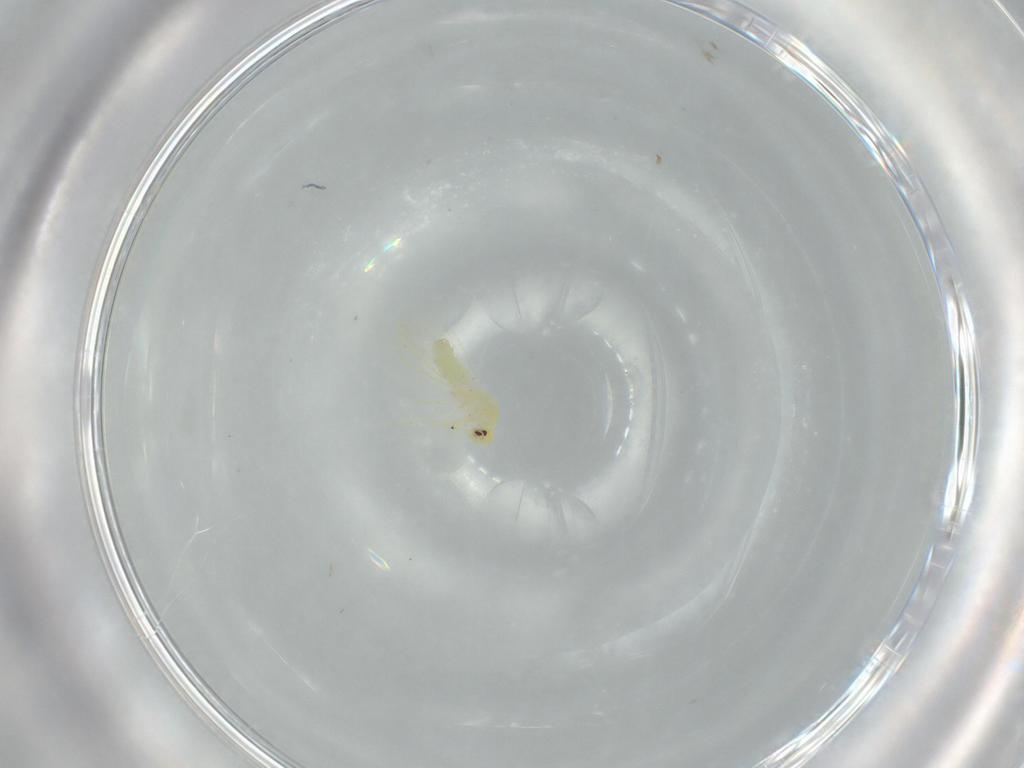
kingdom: Animalia
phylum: Arthropoda
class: Insecta
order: Hemiptera
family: Aleyrodidae
